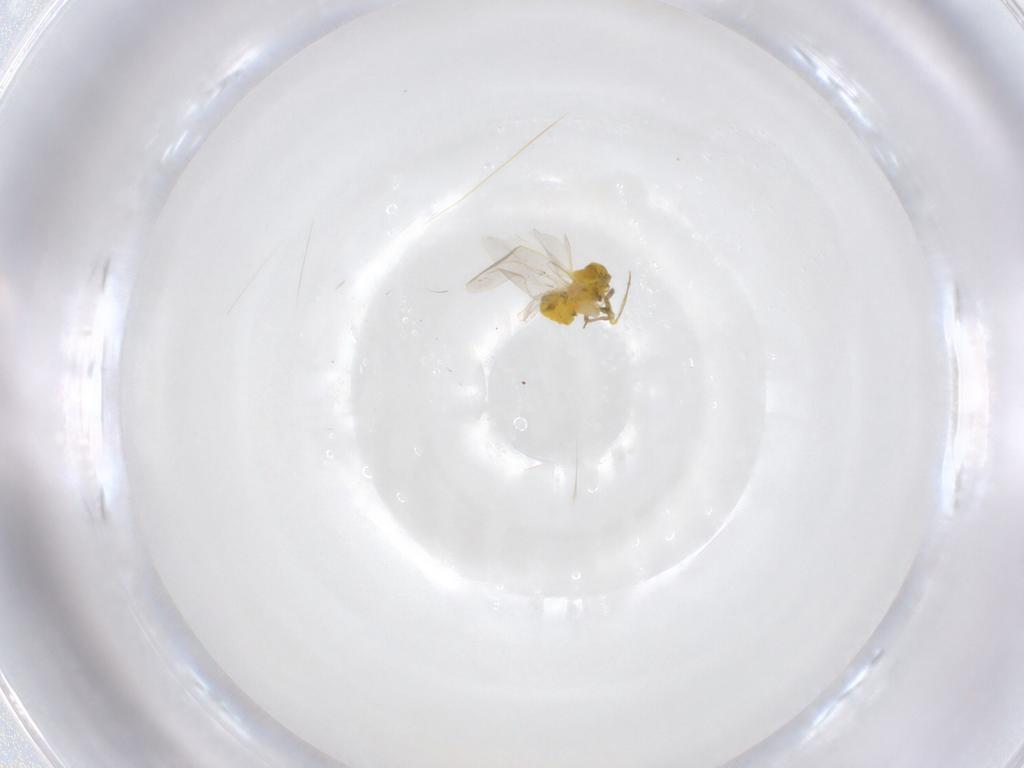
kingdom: Animalia
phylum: Arthropoda
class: Insecta
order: Hemiptera
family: Aleyrodidae
